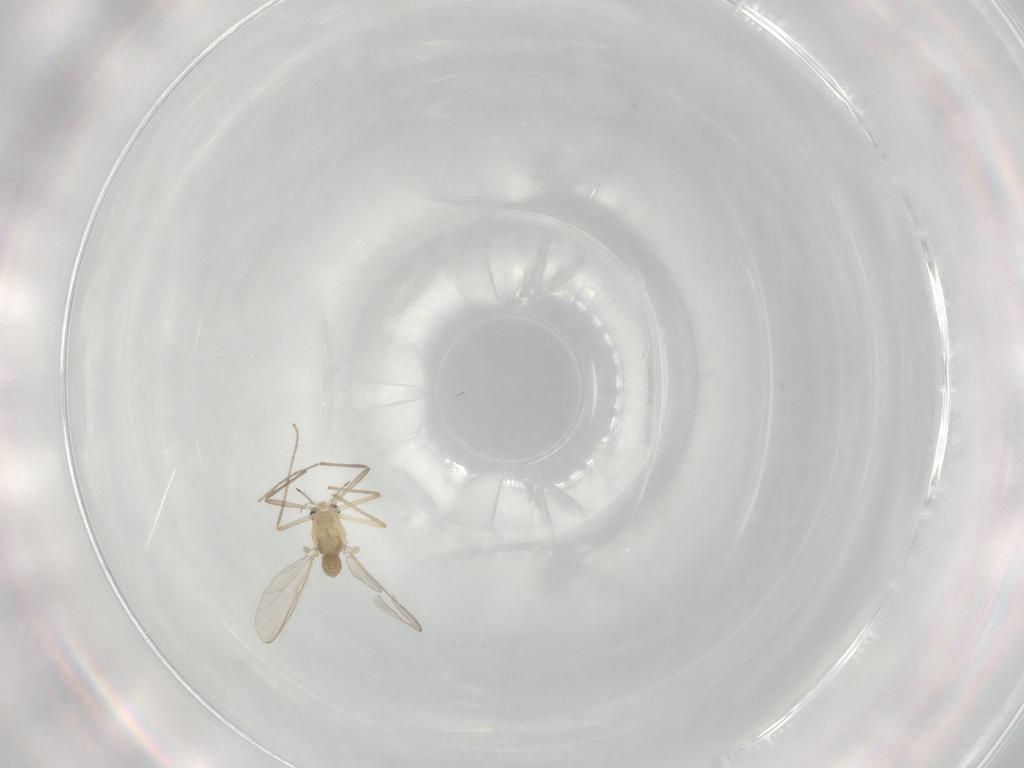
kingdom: Animalia
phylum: Arthropoda
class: Insecta
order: Diptera
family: Chironomidae
